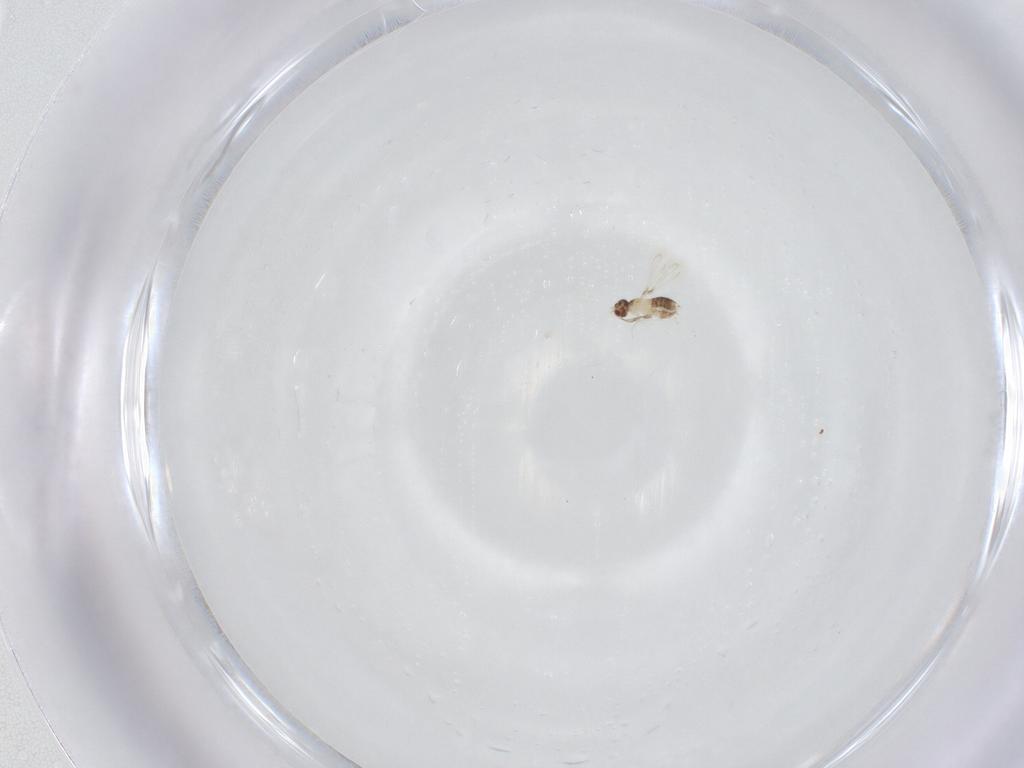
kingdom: Animalia
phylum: Arthropoda
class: Insecta
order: Hymenoptera
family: Mymaridae
